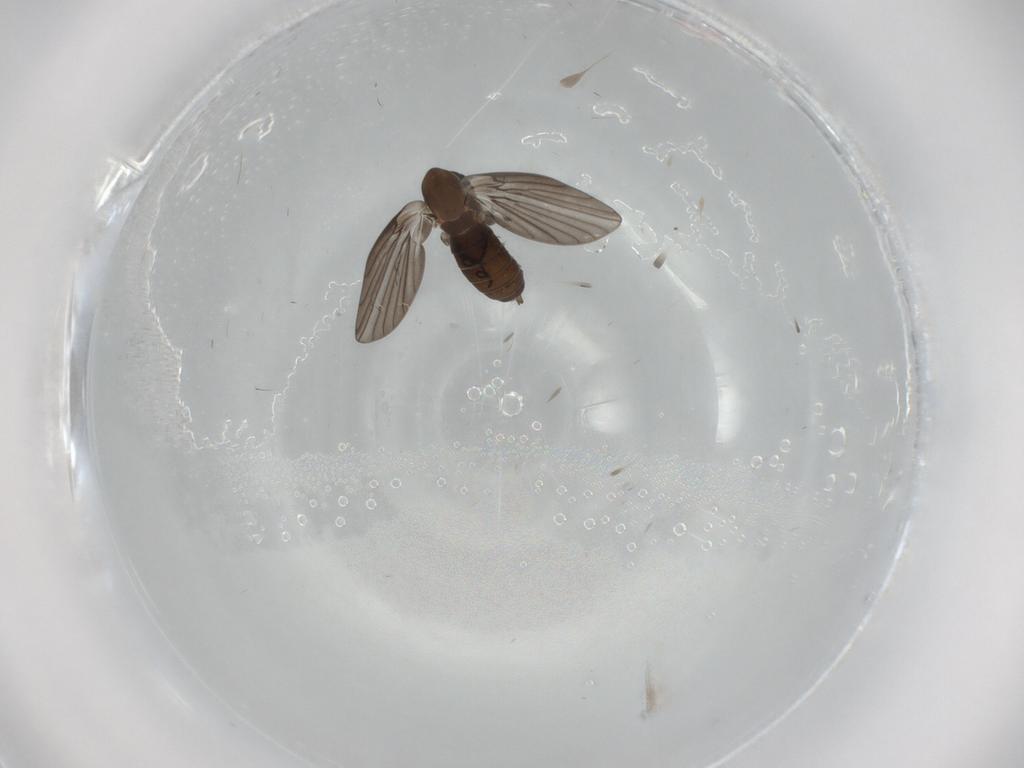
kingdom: Animalia
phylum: Arthropoda
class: Insecta
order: Diptera
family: Psychodidae
